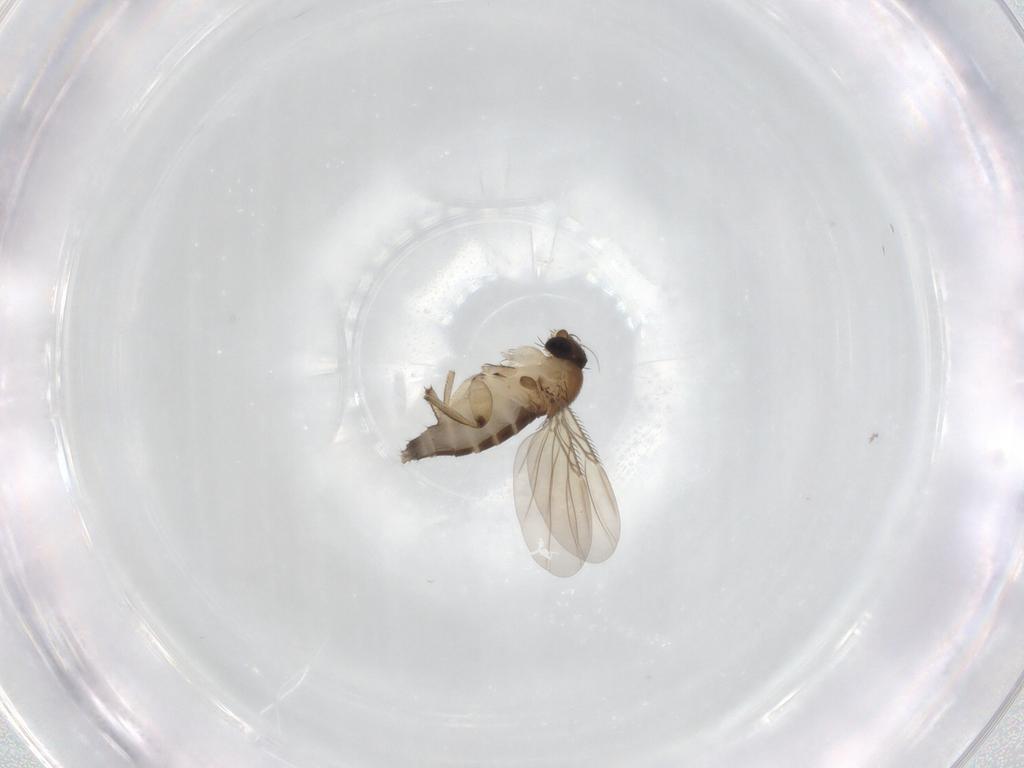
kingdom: Animalia
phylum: Arthropoda
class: Insecta
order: Diptera
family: Phoridae
